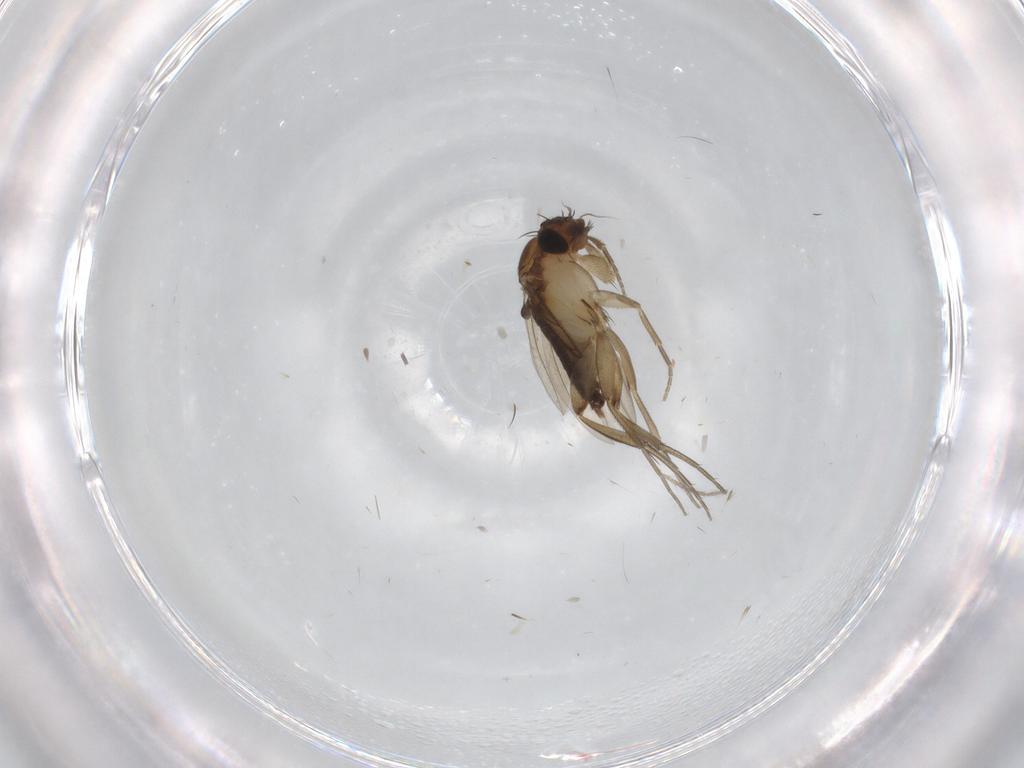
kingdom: Animalia
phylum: Arthropoda
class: Insecta
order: Diptera
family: Phoridae
